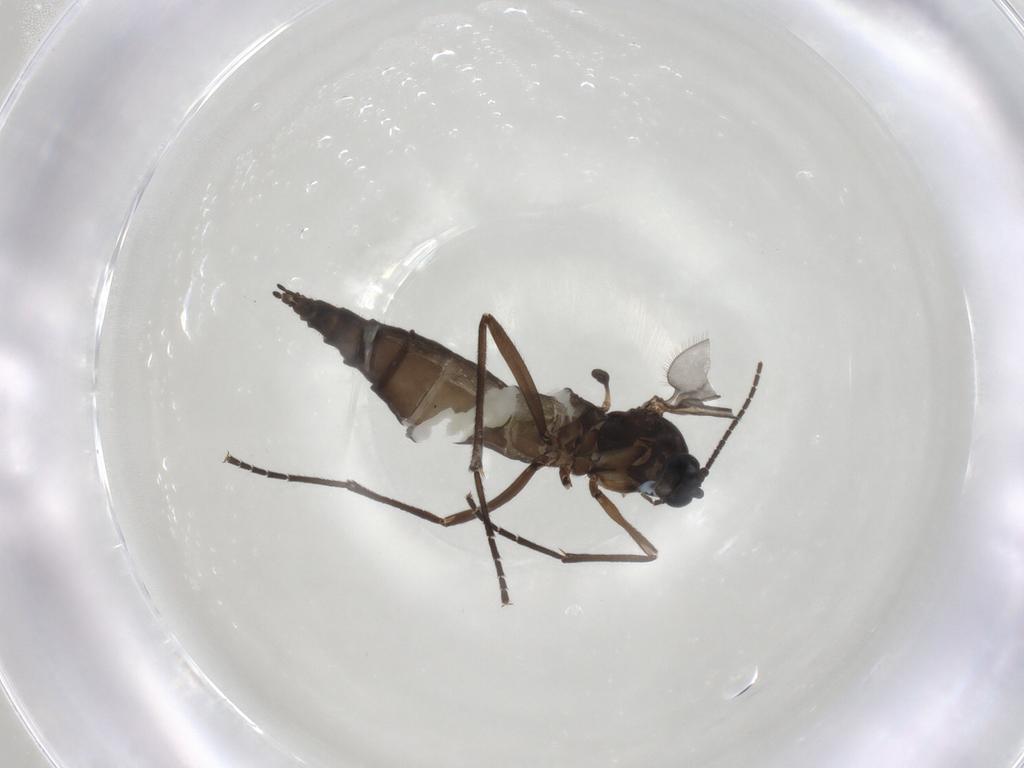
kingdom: Animalia
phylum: Arthropoda
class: Insecta
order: Diptera
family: Sciaridae
